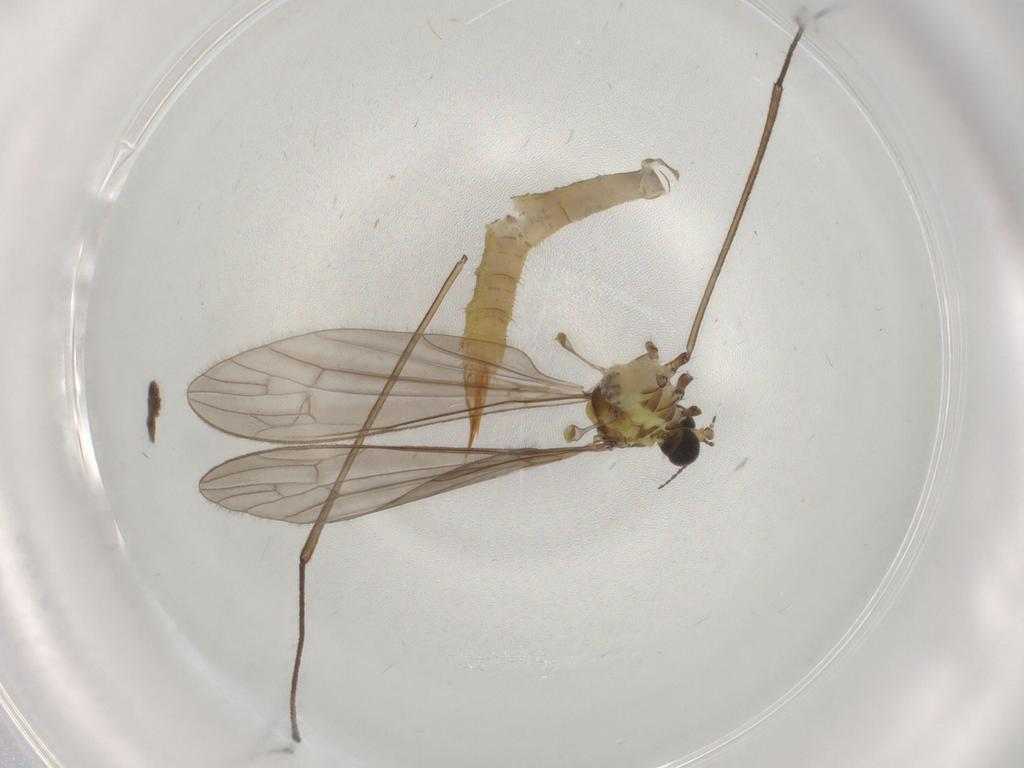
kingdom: Animalia
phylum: Arthropoda
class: Insecta
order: Diptera
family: Limoniidae
